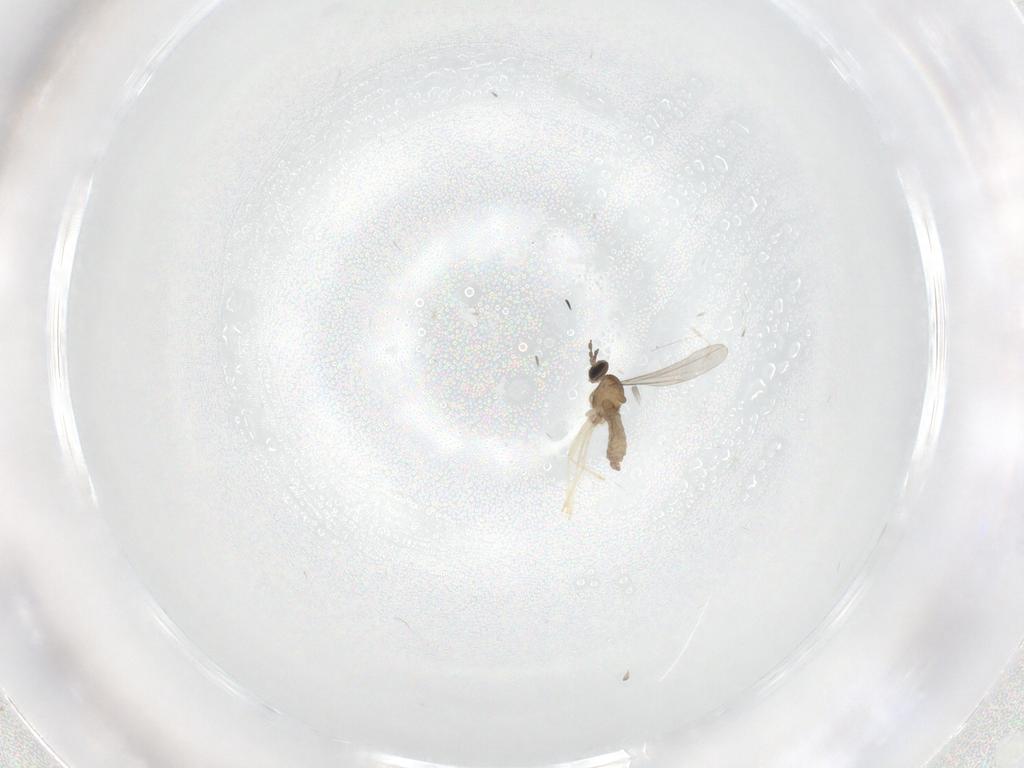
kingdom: Animalia
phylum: Arthropoda
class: Insecta
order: Diptera
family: Cecidomyiidae
